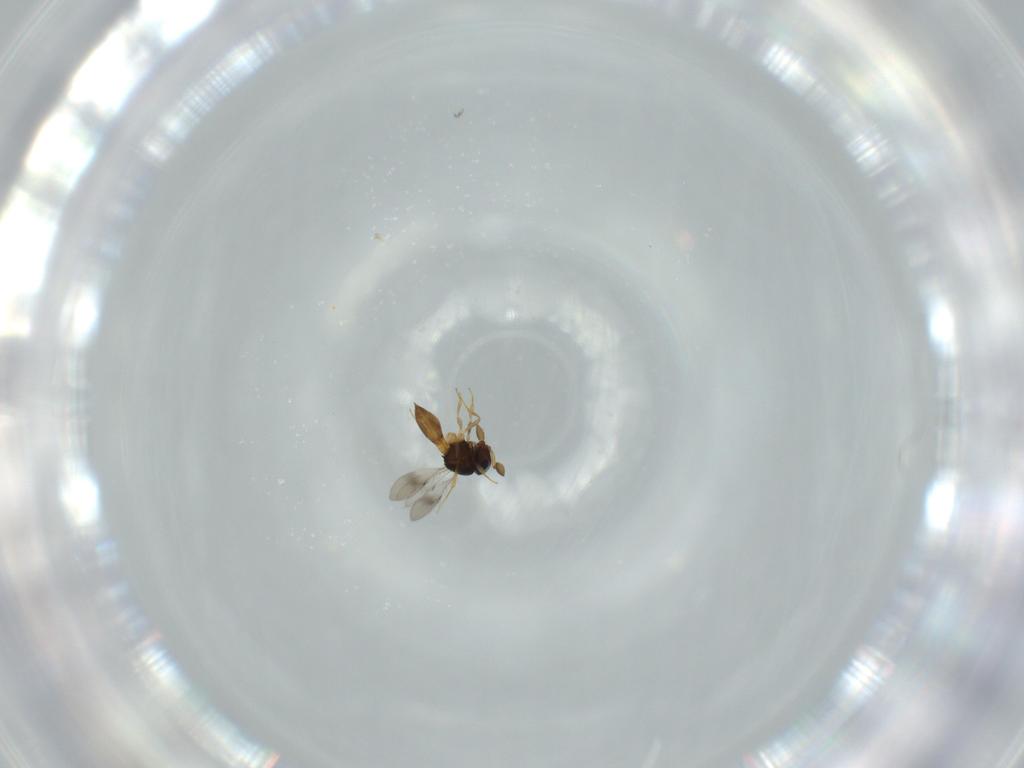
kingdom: Animalia
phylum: Arthropoda
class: Insecta
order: Hymenoptera
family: Scelionidae
